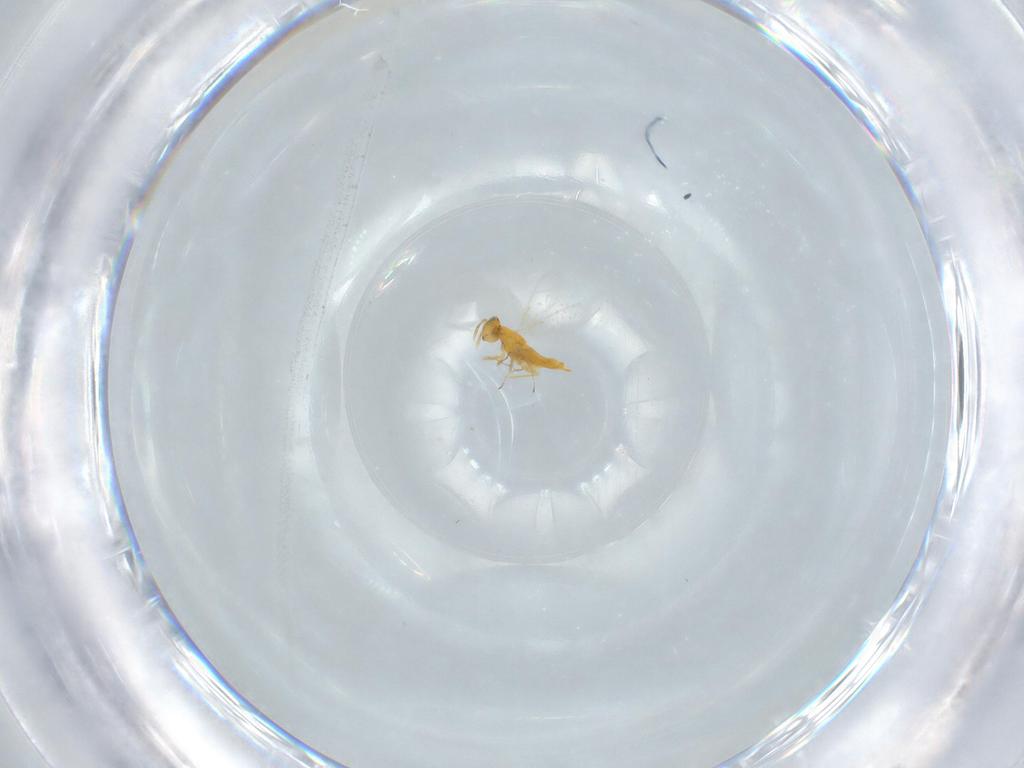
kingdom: Animalia
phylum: Arthropoda
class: Insecta
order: Hymenoptera
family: Aphelinidae
